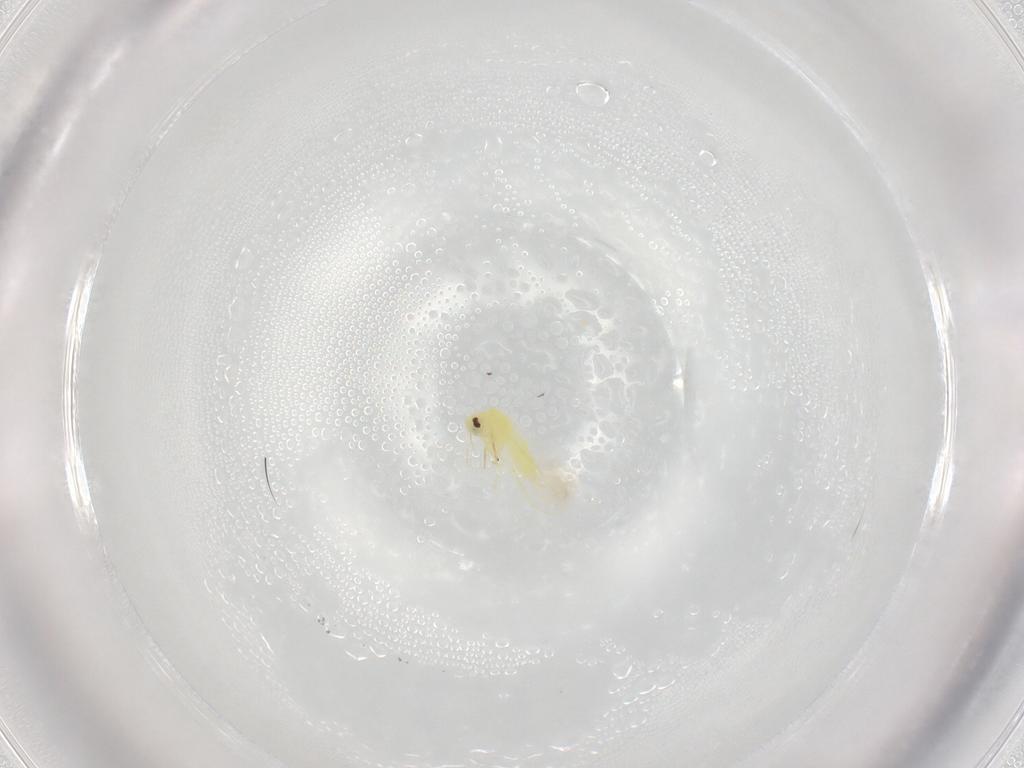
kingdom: Animalia
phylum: Arthropoda
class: Insecta
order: Hemiptera
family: Aleyrodidae
